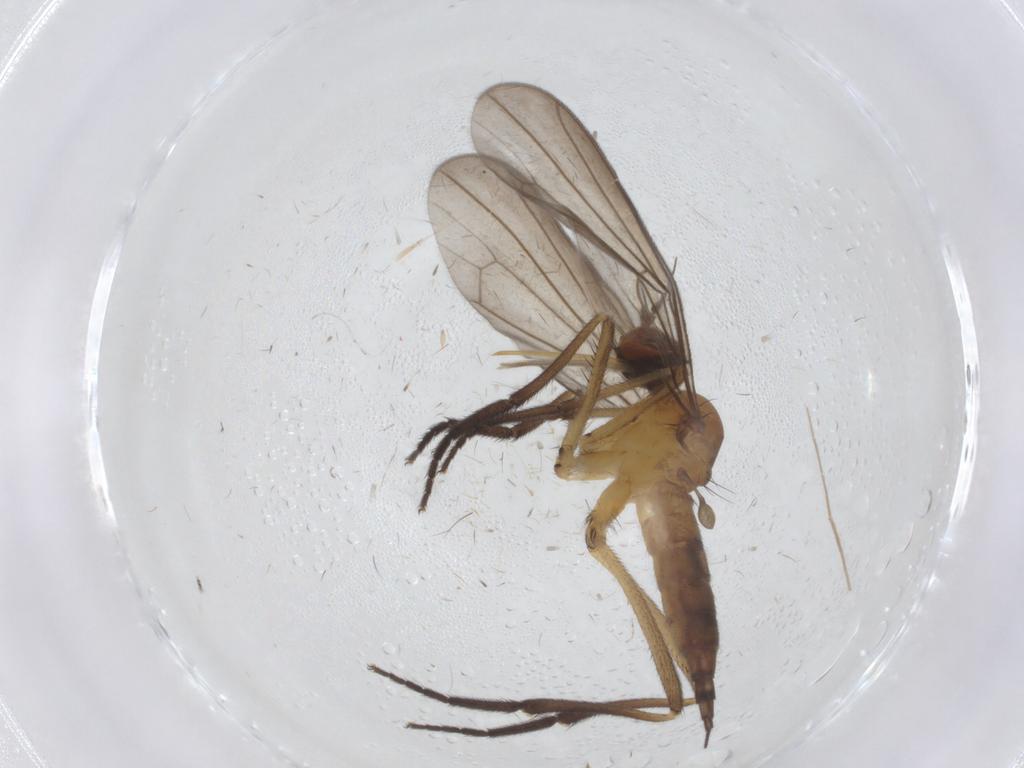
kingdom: Animalia
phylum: Arthropoda
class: Insecta
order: Diptera
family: Empididae
